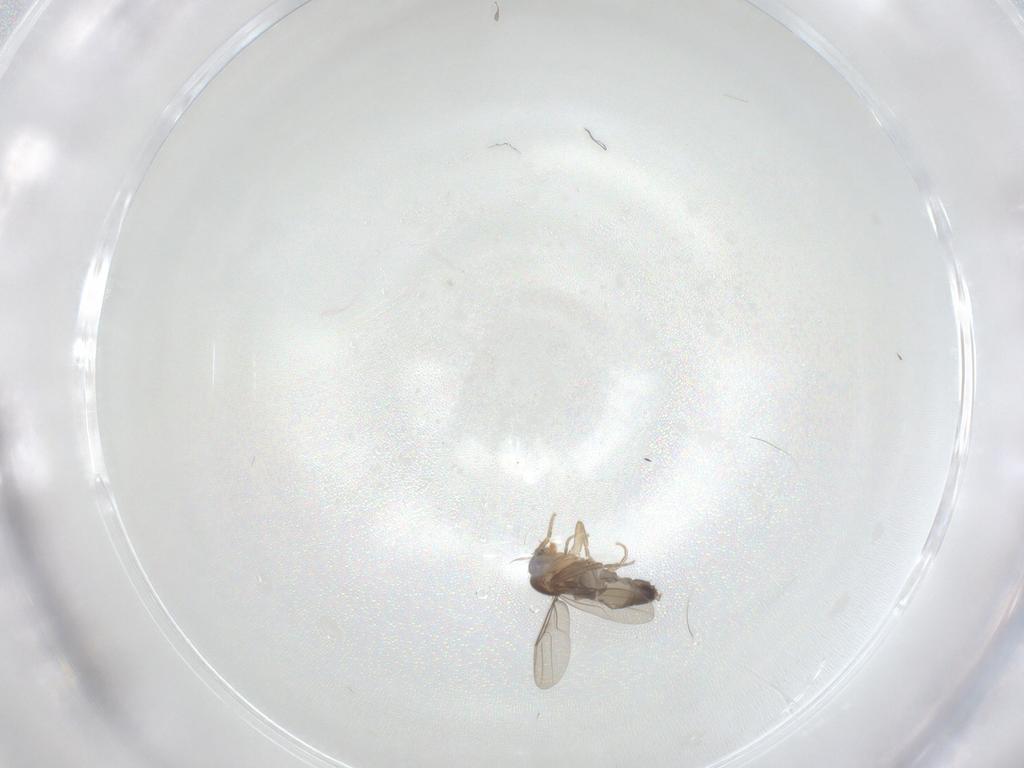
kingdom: Animalia
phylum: Arthropoda
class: Insecta
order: Diptera
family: Phoridae
